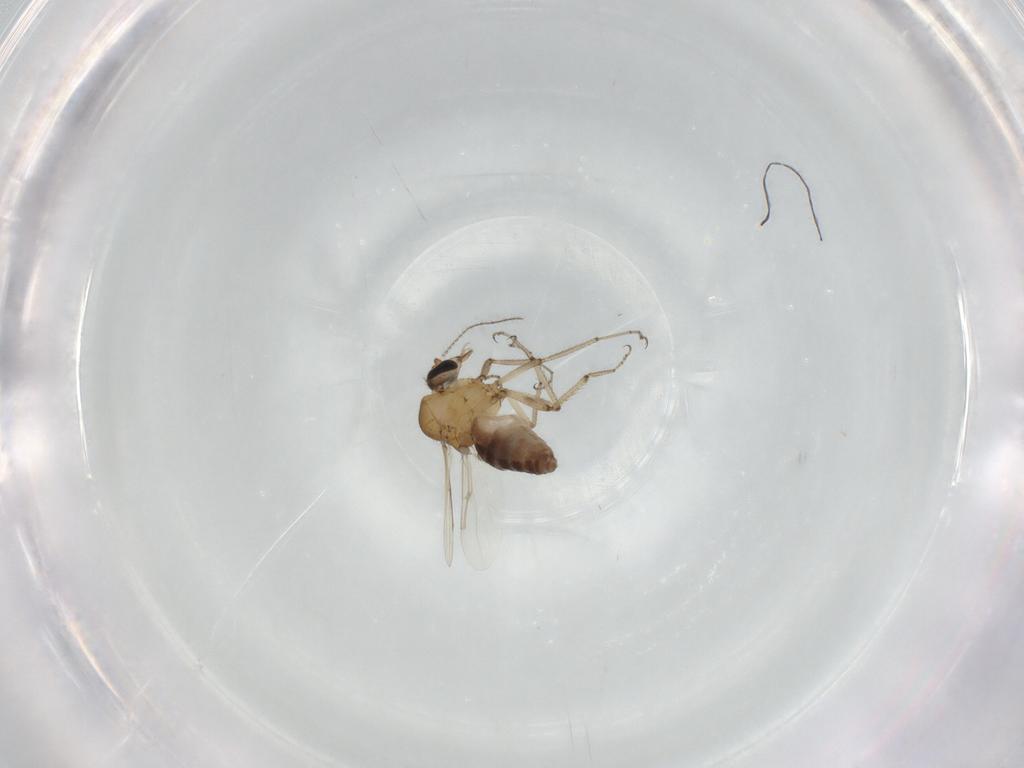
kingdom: Animalia
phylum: Arthropoda
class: Insecta
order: Diptera
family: Ceratopogonidae
